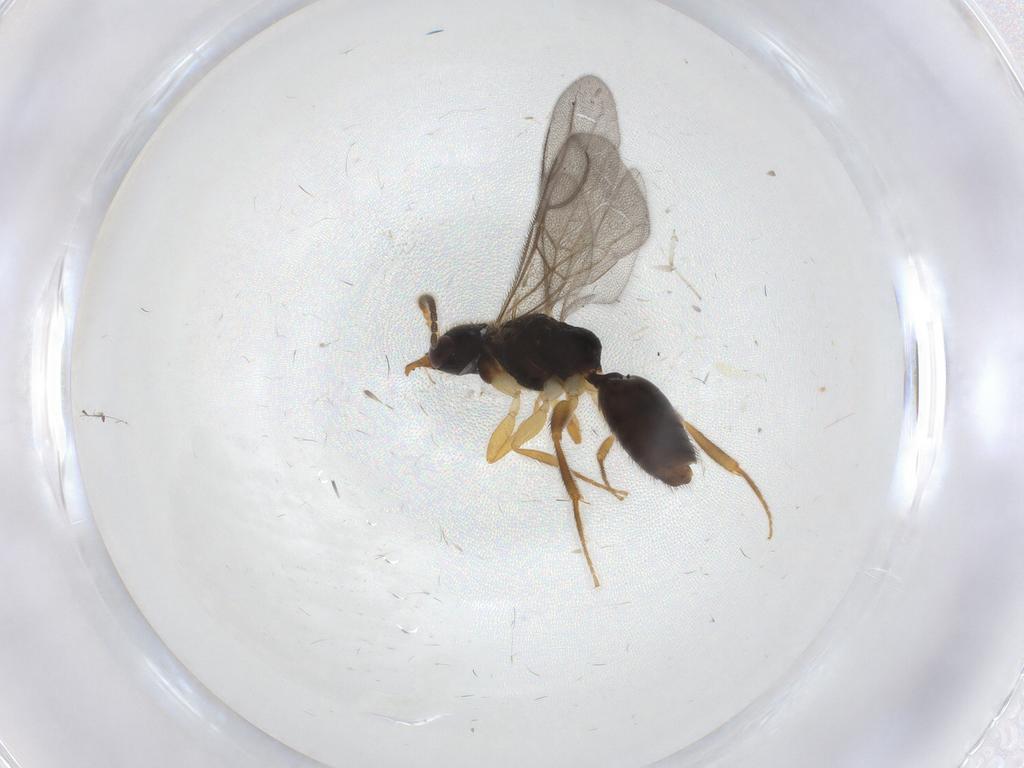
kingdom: Animalia
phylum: Arthropoda
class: Insecta
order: Hymenoptera
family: Bethylidae
